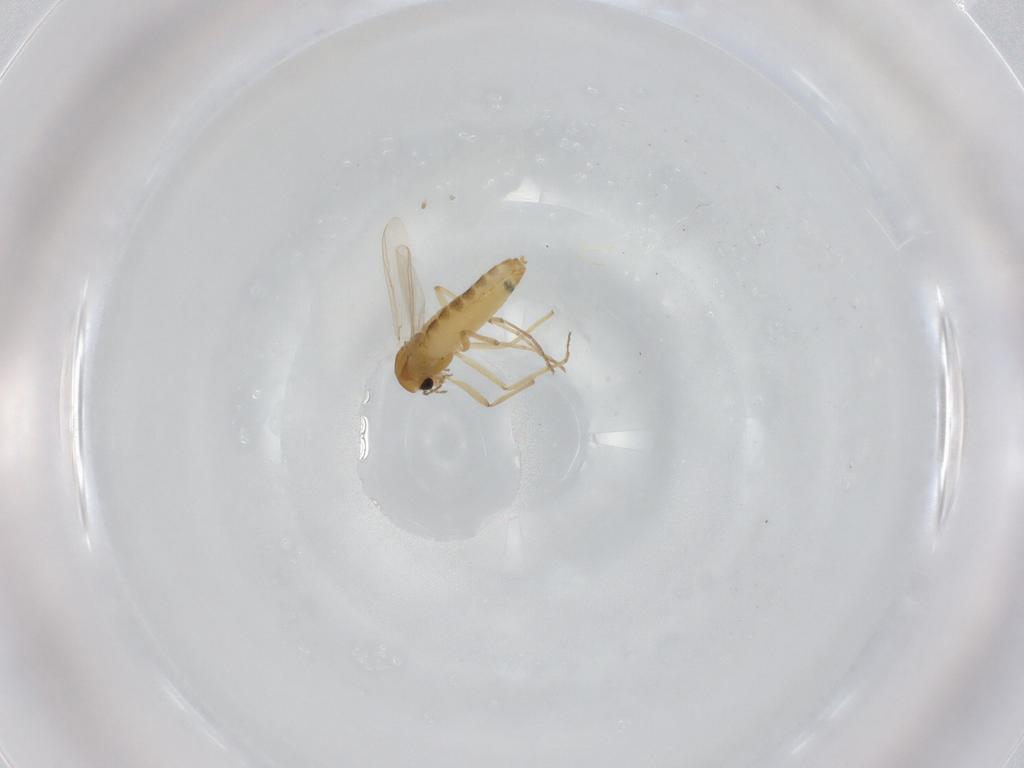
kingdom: Animalia
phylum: Arthropoda
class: Insecta
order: Diptera
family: Chironomidae
